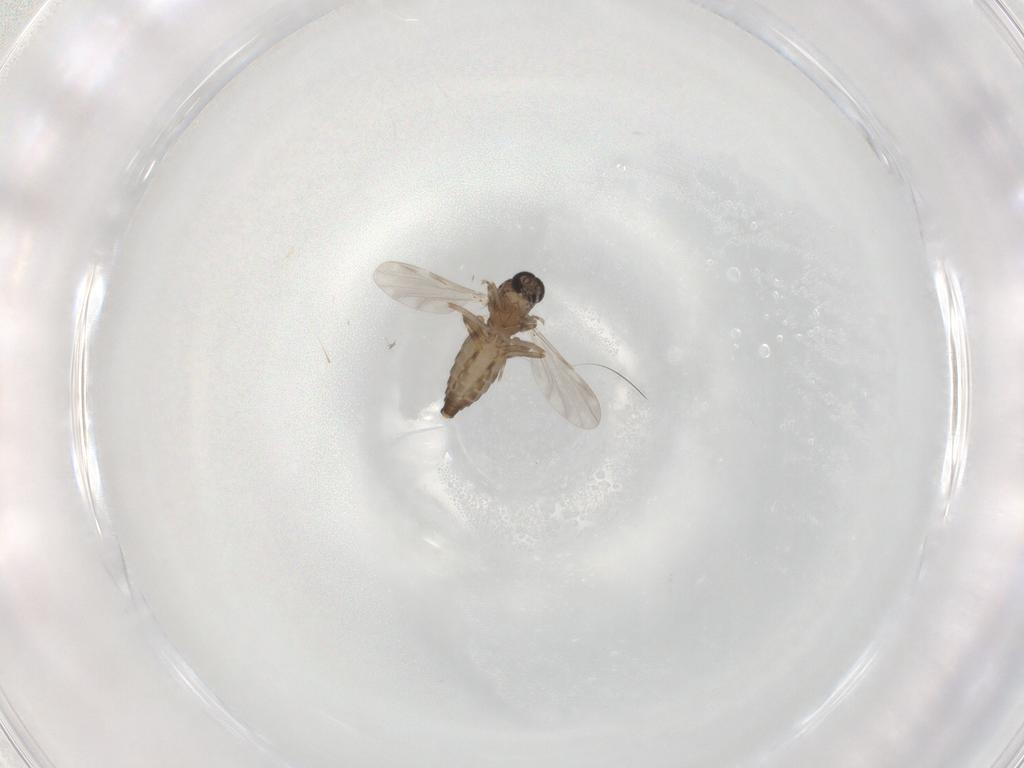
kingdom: Animalia
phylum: Arthropoda
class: Insecta
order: Diptera
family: Ceratopogonidae
